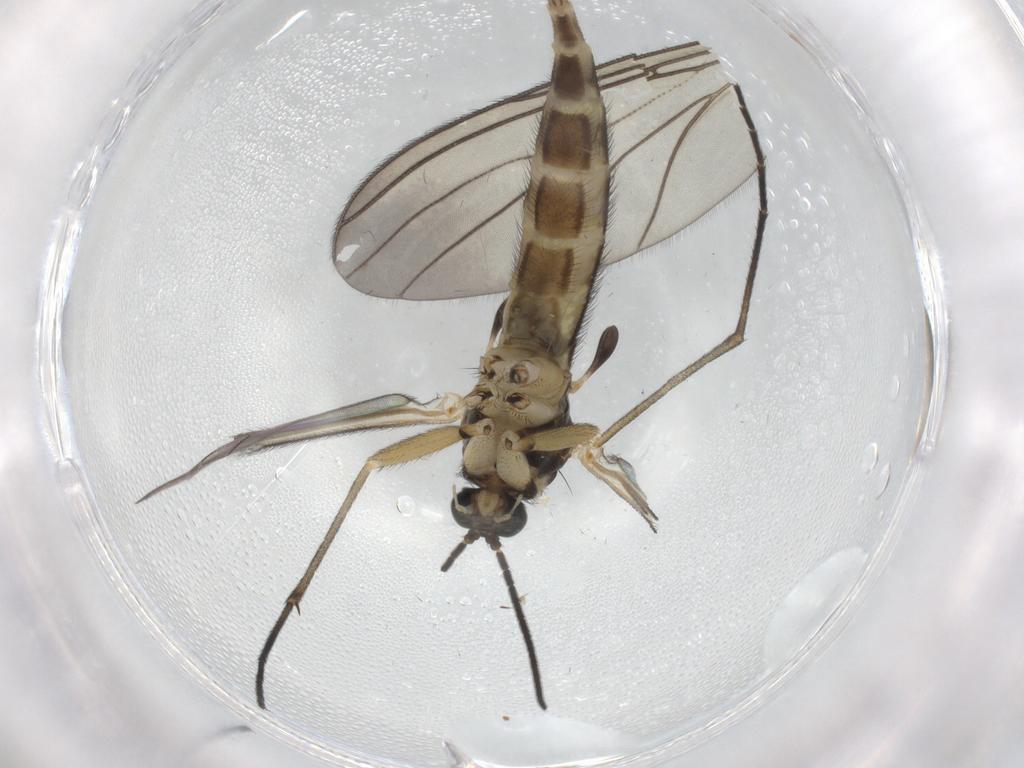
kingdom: Animalia
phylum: Arthropoda
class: Insecta
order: Diptera
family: Sciaridae
